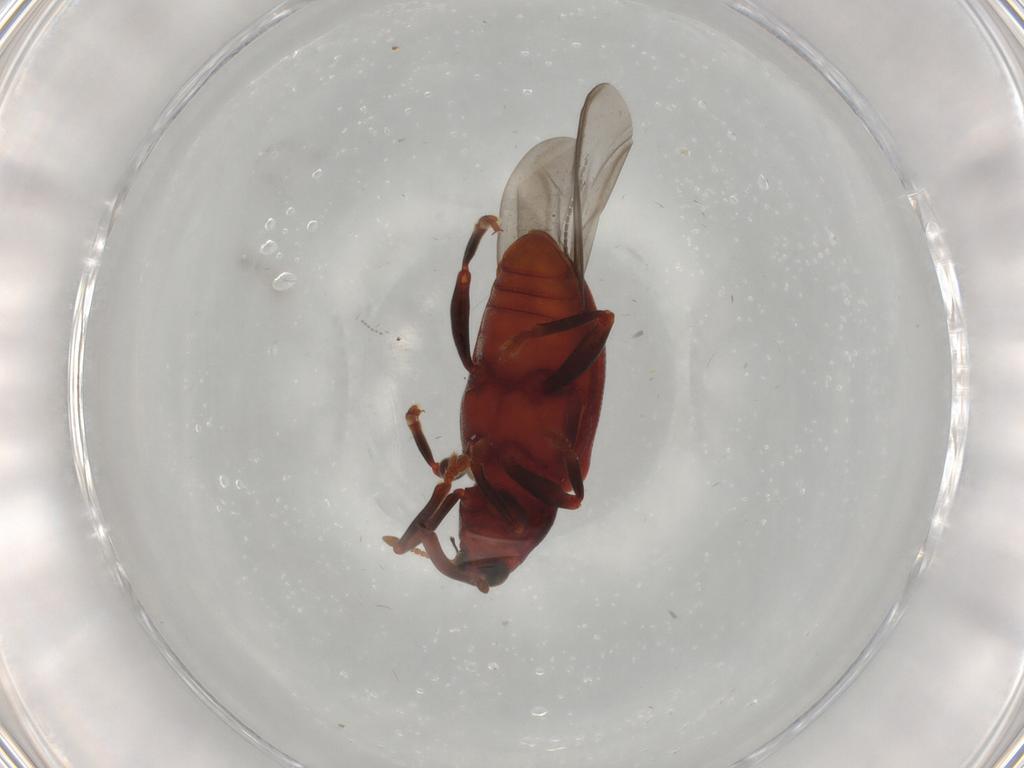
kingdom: Animalia
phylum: Arthropoda
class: Insecta
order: Coleoptera
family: Curculionidae
